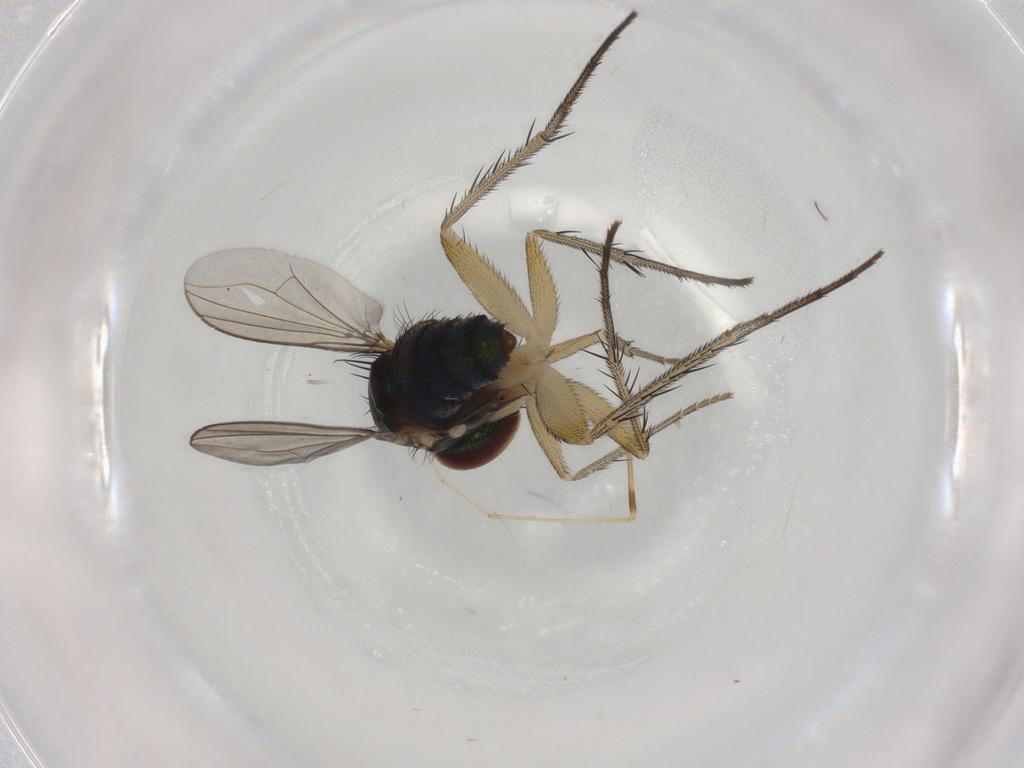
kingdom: Animalia
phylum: Arthropoda
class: Insecta
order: Diptera
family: Dolichopodidae
